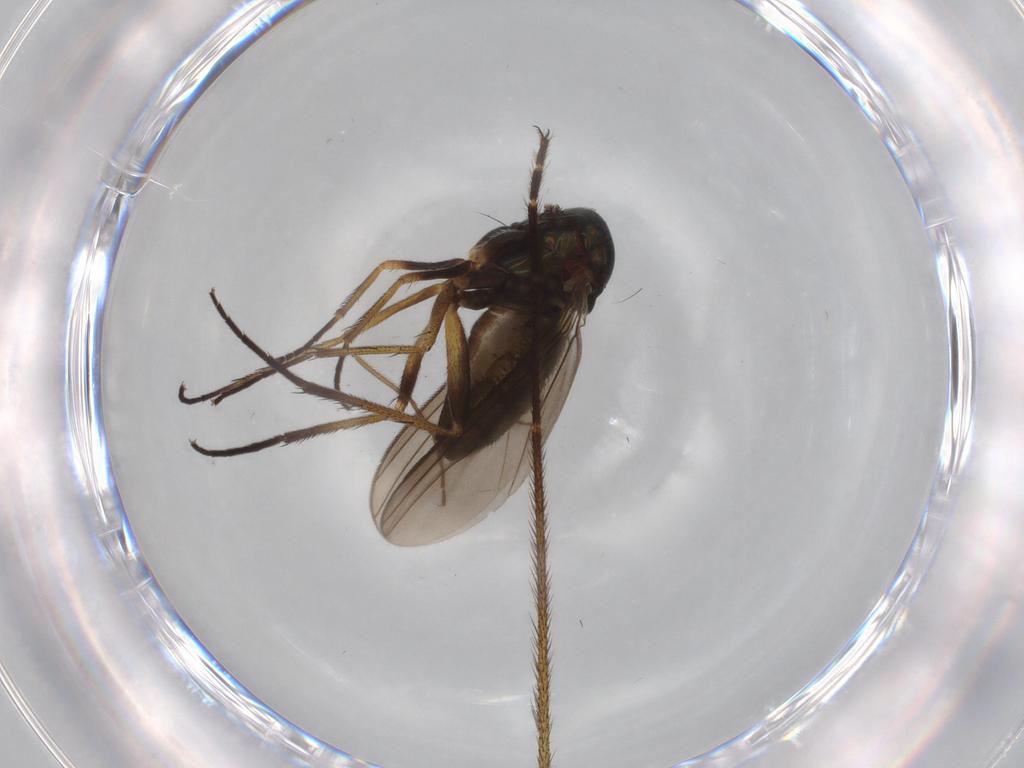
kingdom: Animalia
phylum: Arthropoda
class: Insecta
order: Diptera
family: Dolichopodidae
